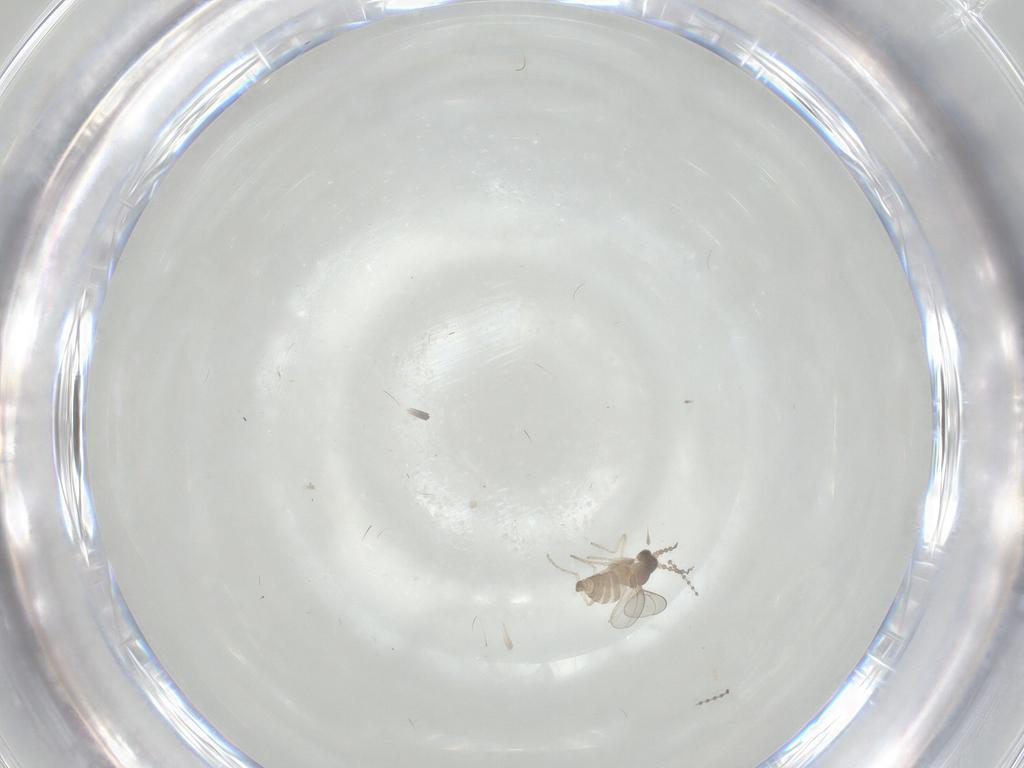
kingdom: Animalia
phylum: Arthropoda
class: Insecta
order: Diptera
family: Cecidomyiidae
